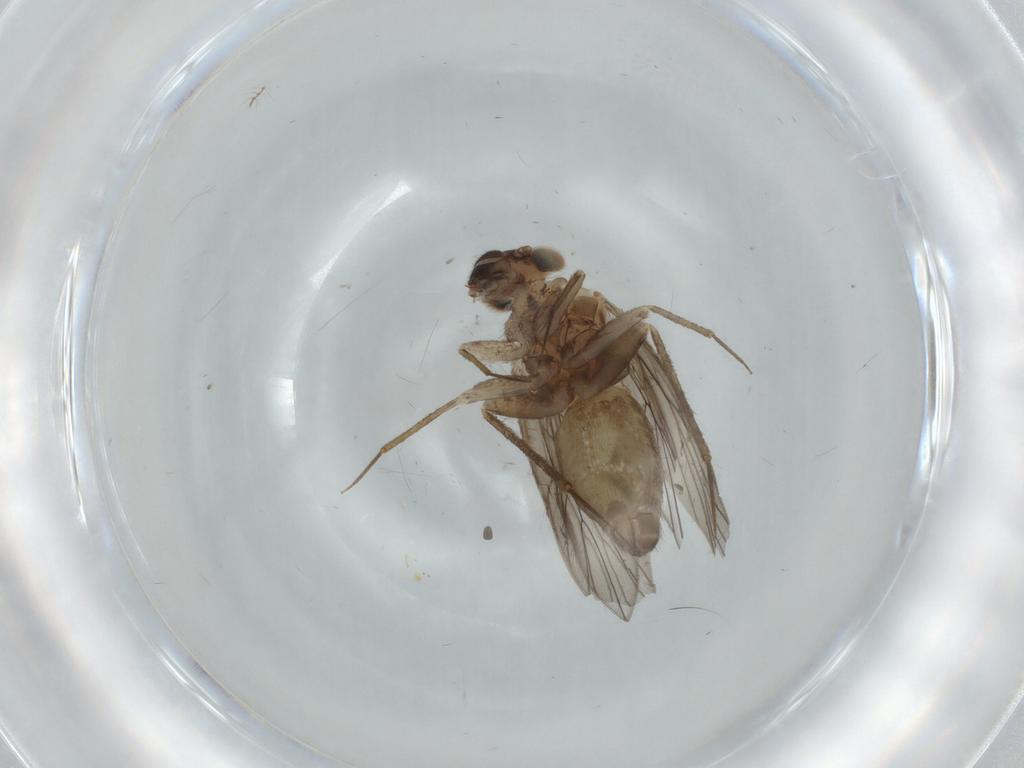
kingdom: Animalia
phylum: Arthropoda
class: Insecta
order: Psocodea
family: Lepidopsocidae
